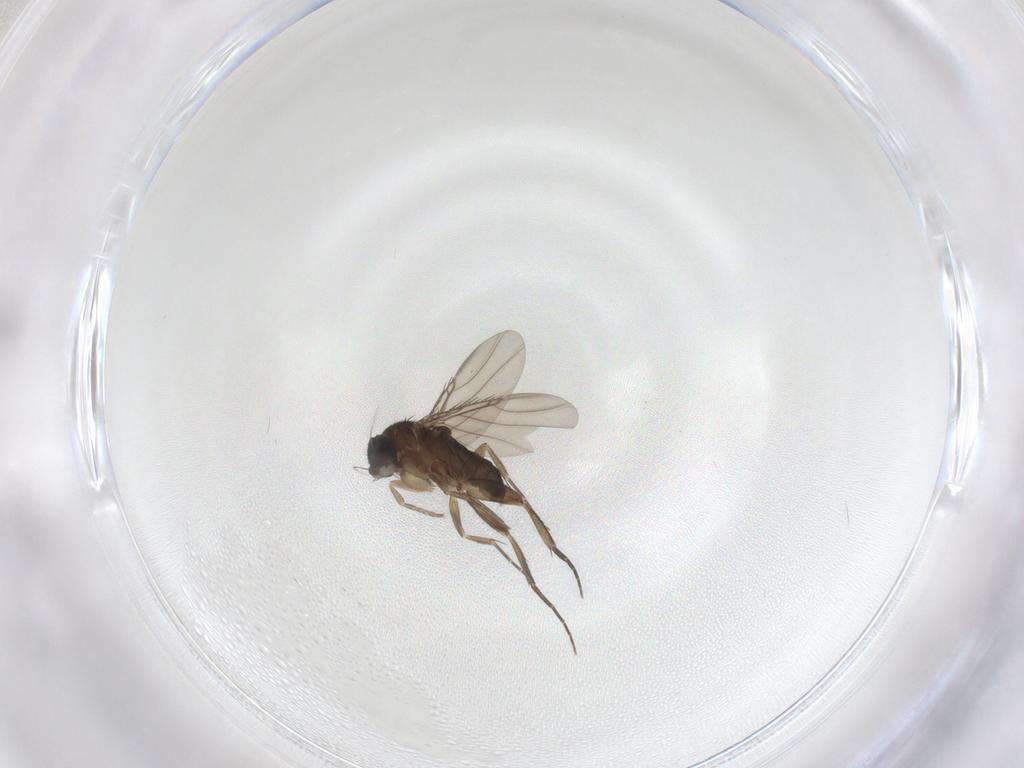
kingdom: Animalia
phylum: Arthropoda
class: Insecta
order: Diptera
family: Phoridae
